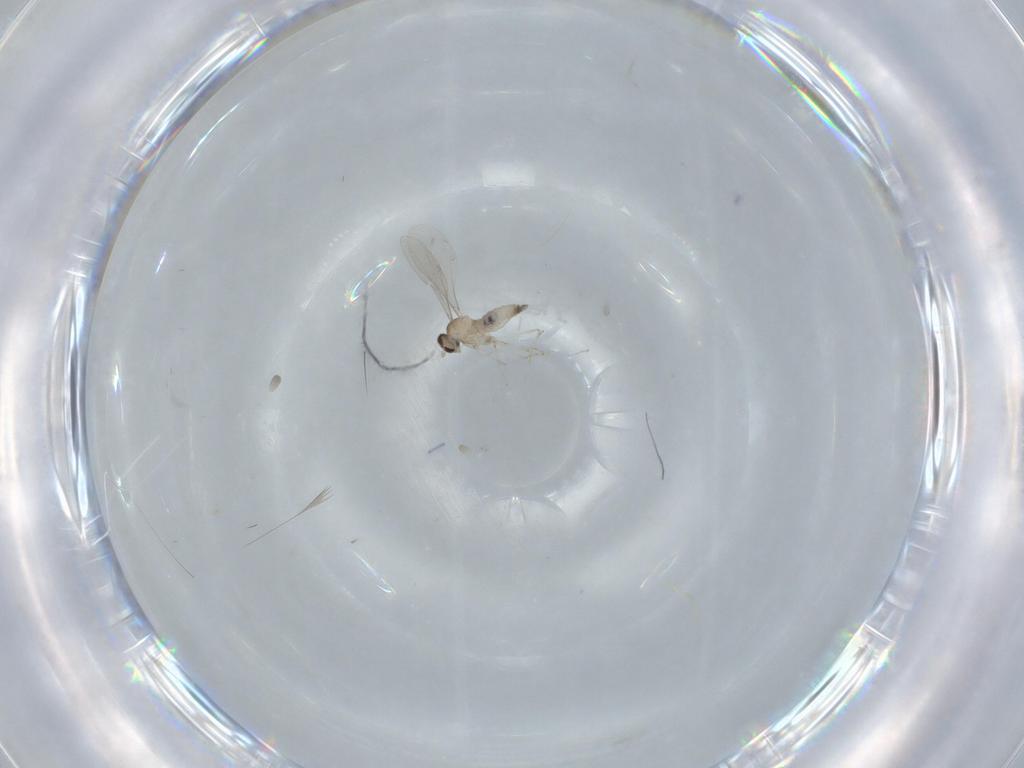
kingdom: Animalia
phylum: Arthropoda
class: Insecta
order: Diptera
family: Cecidomyiidae
